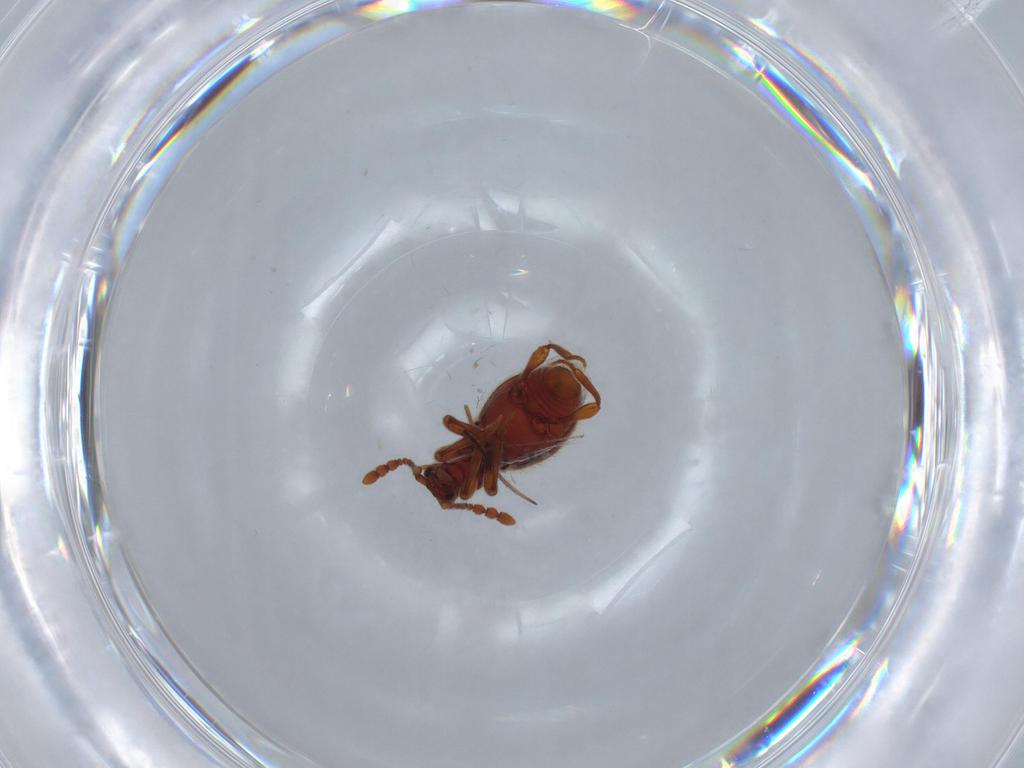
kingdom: Animalia
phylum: Arthropoda
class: Insecta
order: Coleoptera
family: Staphylinidae
